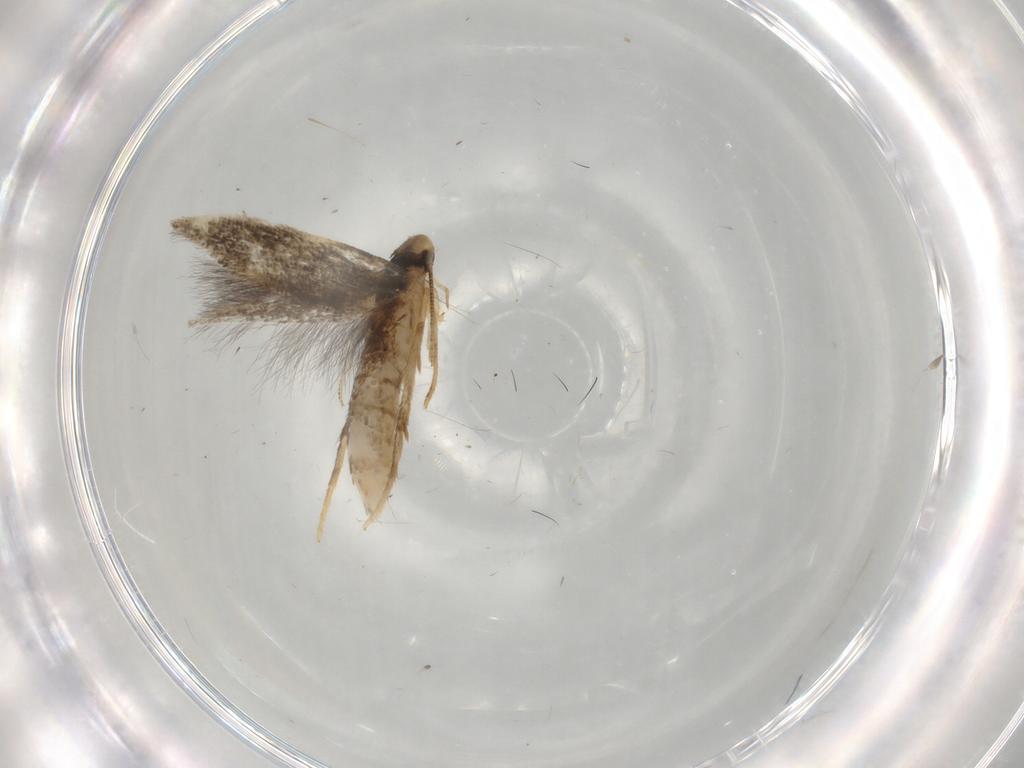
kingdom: Animalia
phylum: Arthropoda
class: Insecta
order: Lepidoptera
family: Elachistidae
